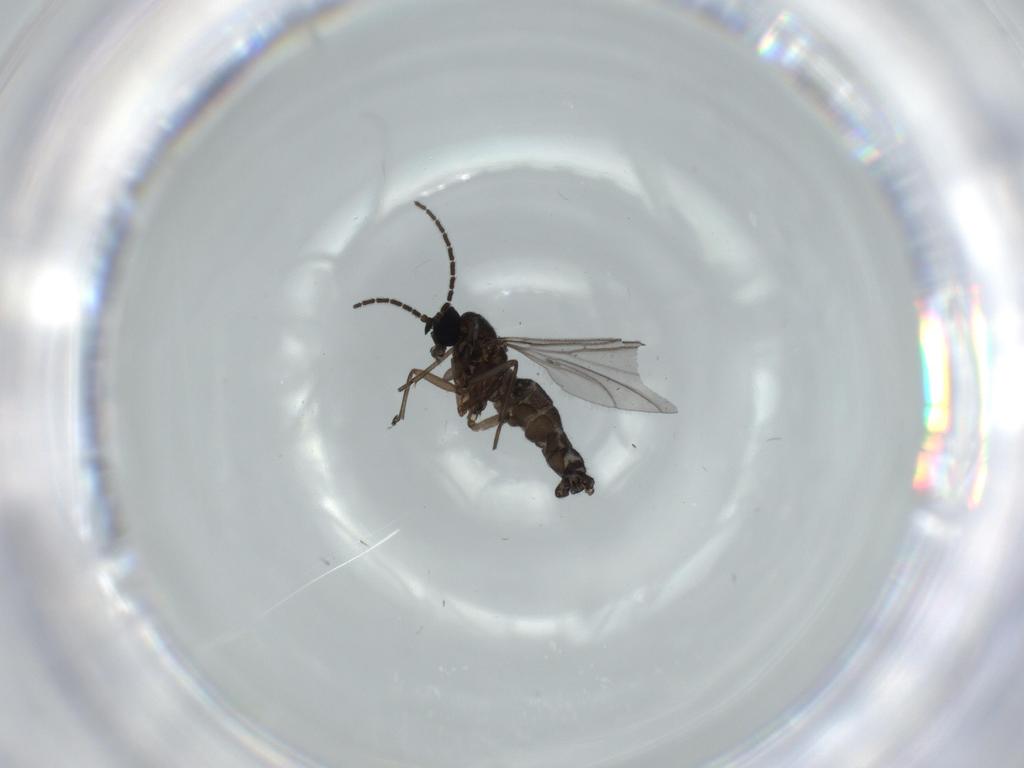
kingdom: Animalia
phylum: Arthropoda
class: Insecta
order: Diptera
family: Sciaridae
